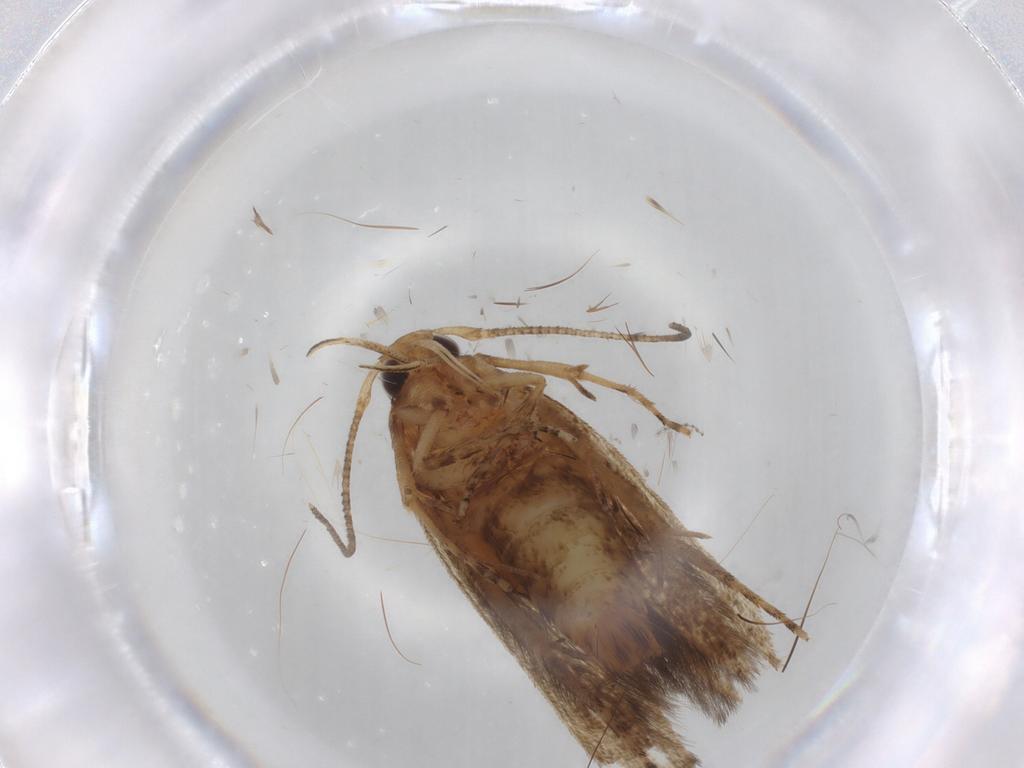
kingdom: Animalia
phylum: Arthropoda
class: Insecta
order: Lepidoptera
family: Cosmopterigidae
